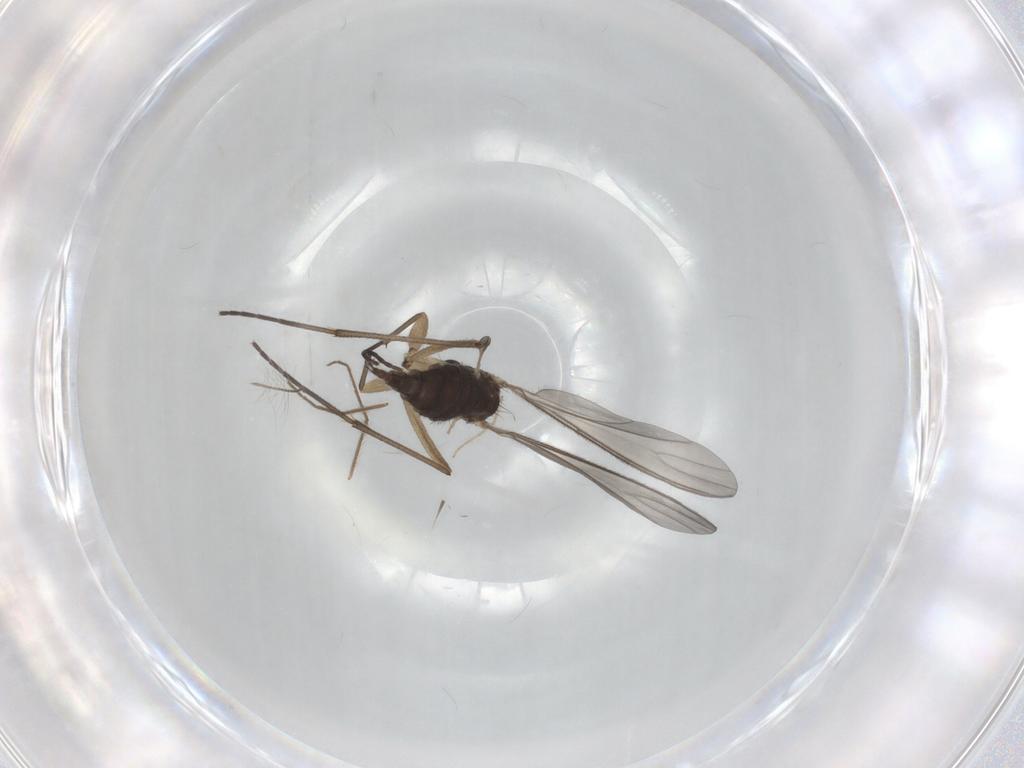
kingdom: Animalia
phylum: Arthropoda
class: Insecta
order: Diptera
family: Sciaridae
